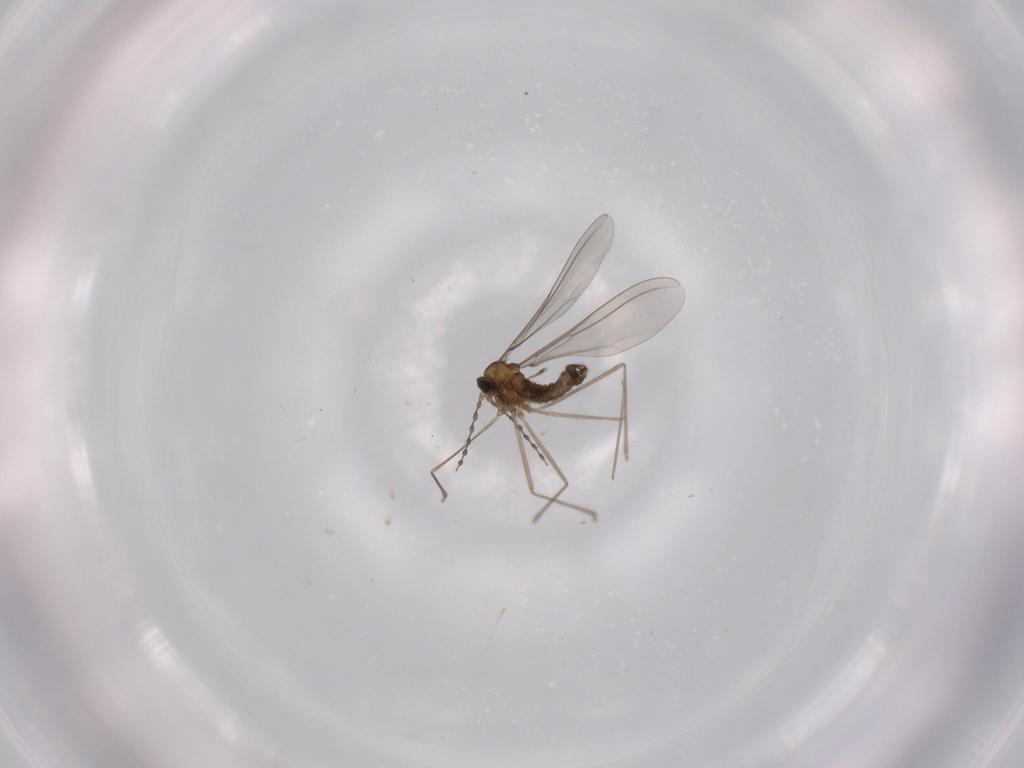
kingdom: Animalia
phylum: Arthropoda
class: Insecta
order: Diptera
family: Cecidomyiidae
